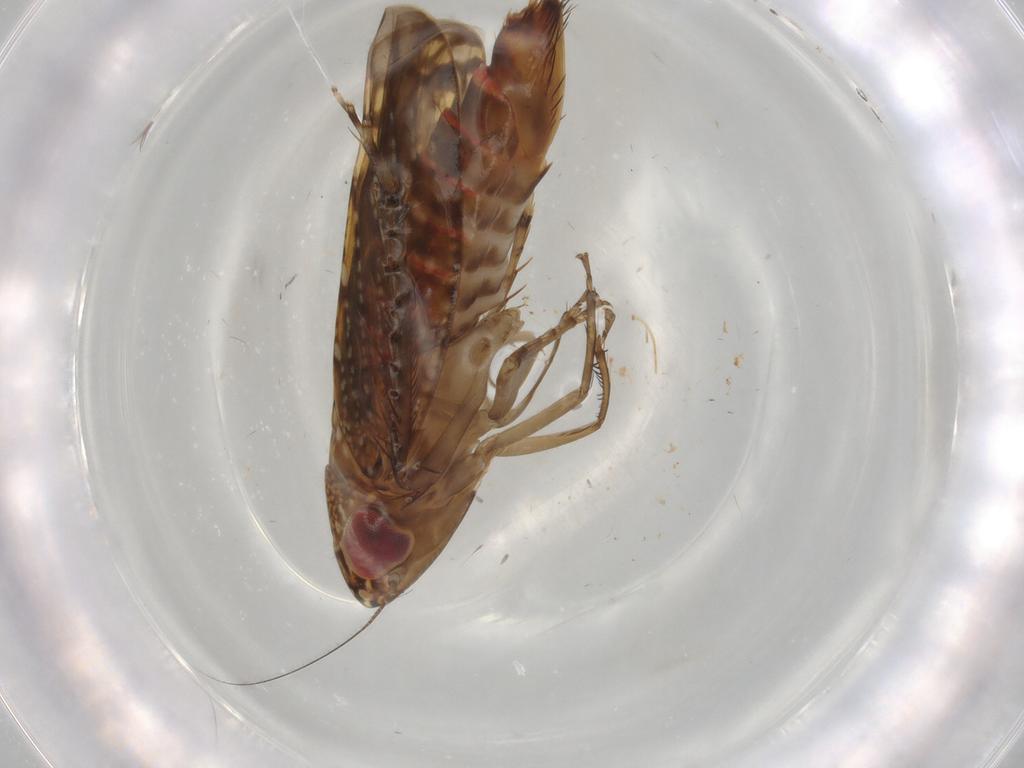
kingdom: Animalia
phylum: Arthropoda
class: Insecta
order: Hemiptera
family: Cicadellidae
